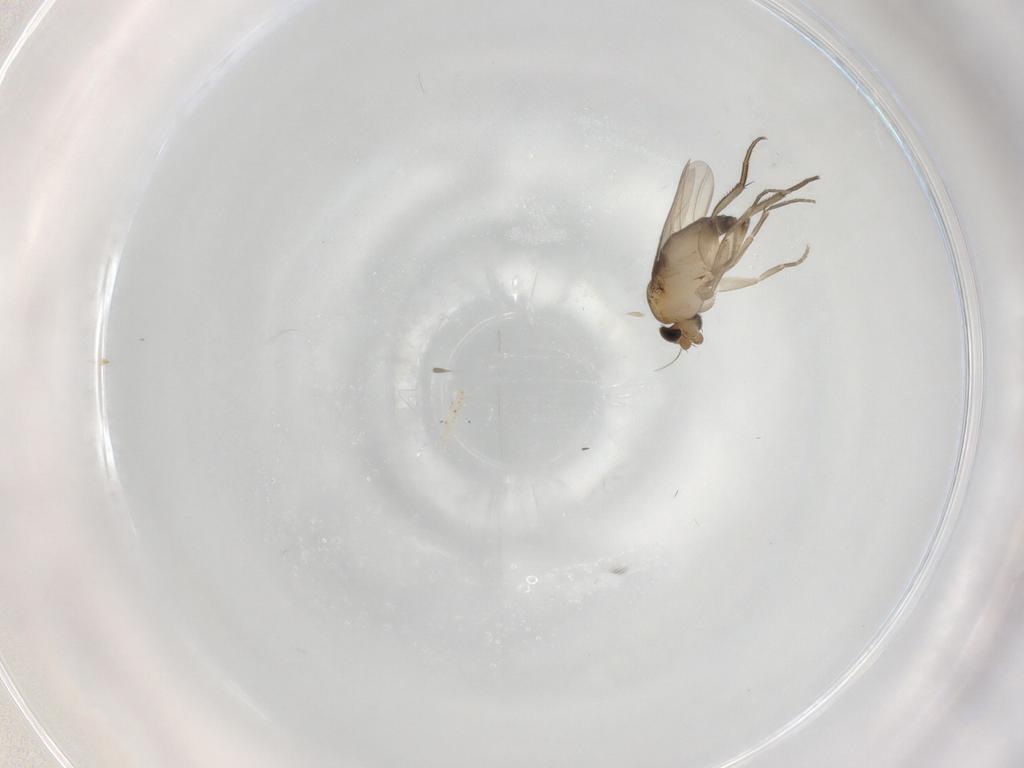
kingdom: Animalia
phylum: Arthropoda
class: Insecta
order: Diptera
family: Phoridae
